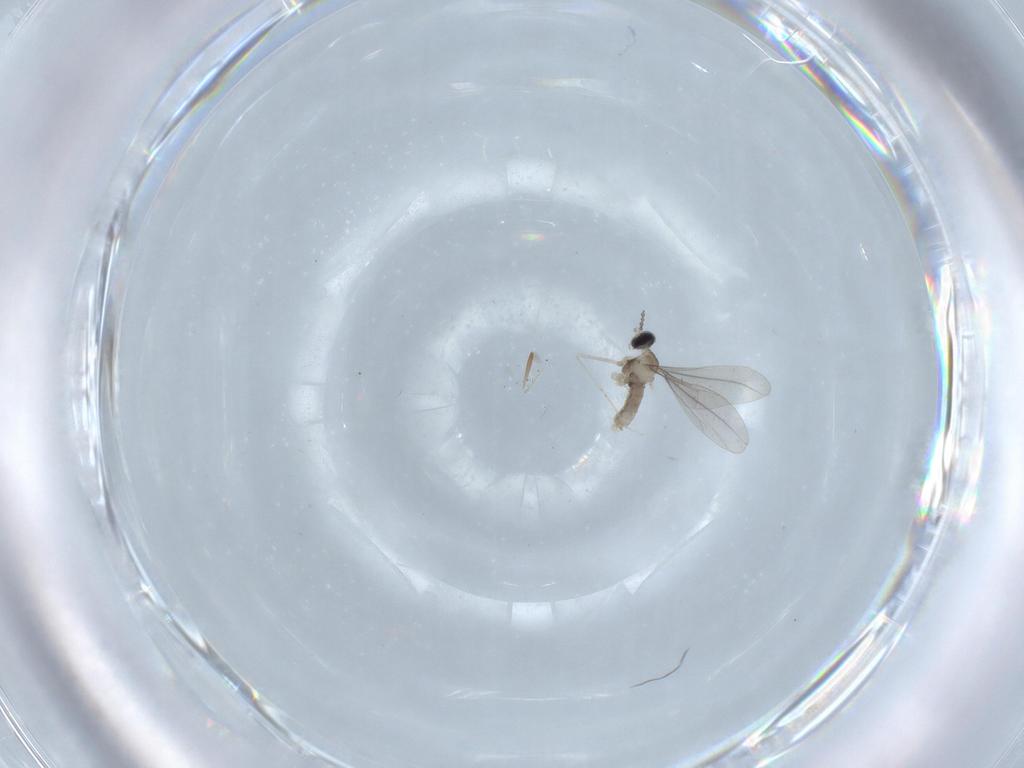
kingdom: Animalia
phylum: Arthropoda
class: Insecta
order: Diptera
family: Cecidomyiidae
